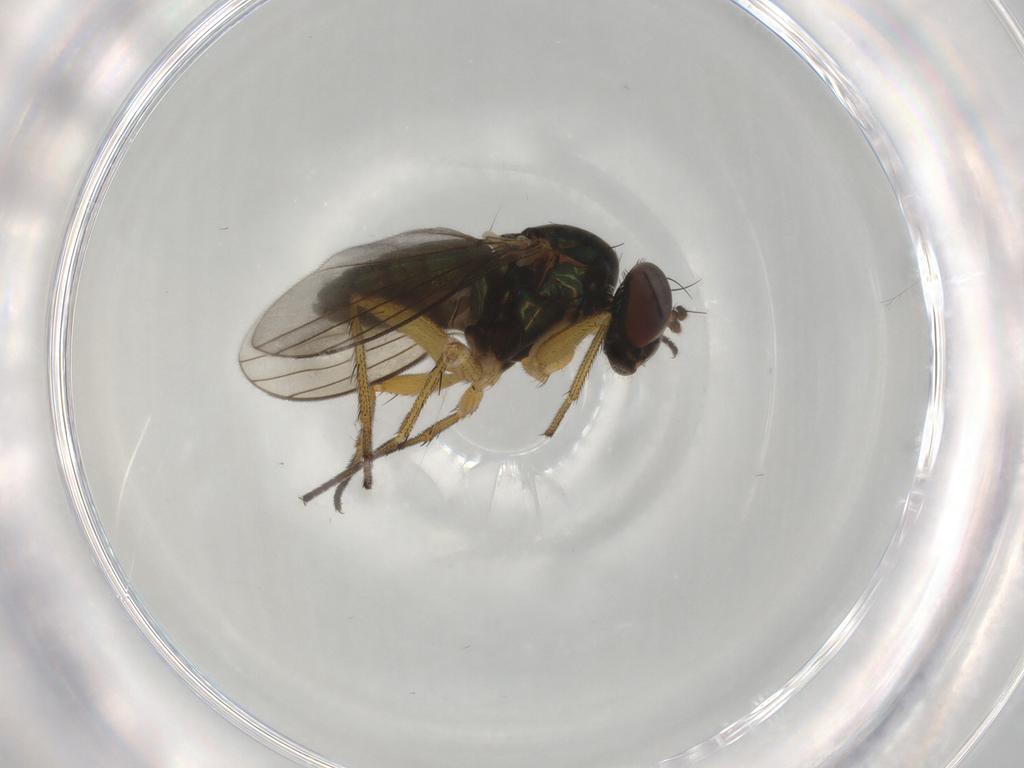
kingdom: Animalia
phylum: Arthropoda
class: Insecta
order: Diptera
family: Dolichopodidae
